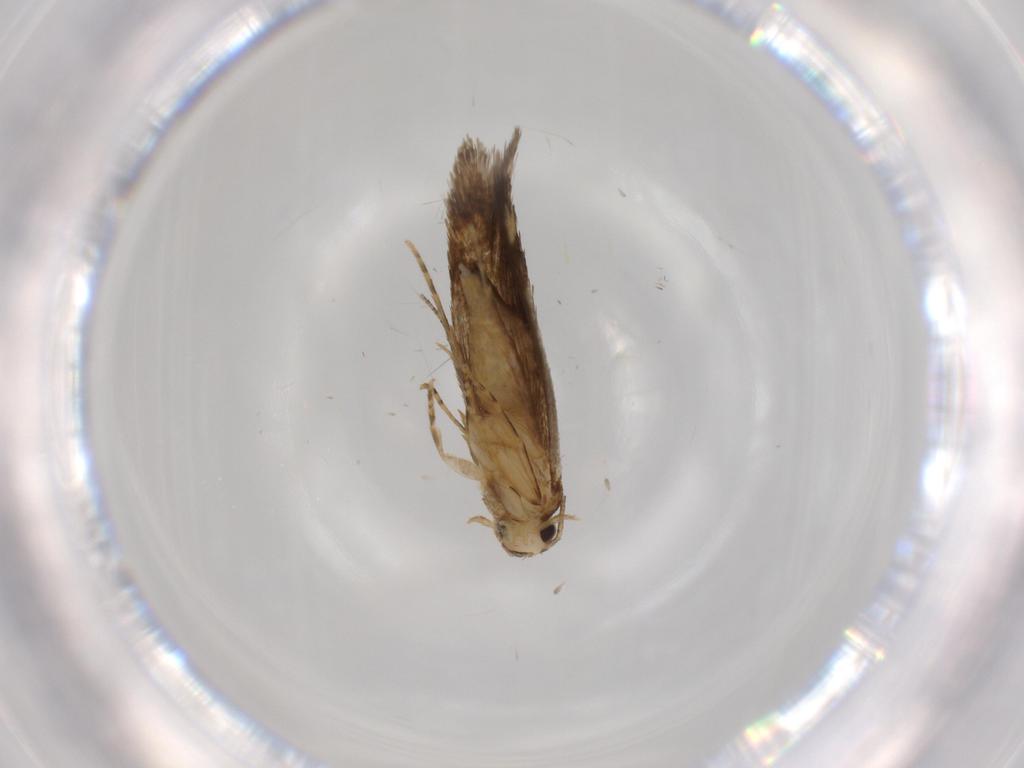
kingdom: Animalia
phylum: Arthropoda
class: Insecta
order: Lepidoptera
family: Tineidae
